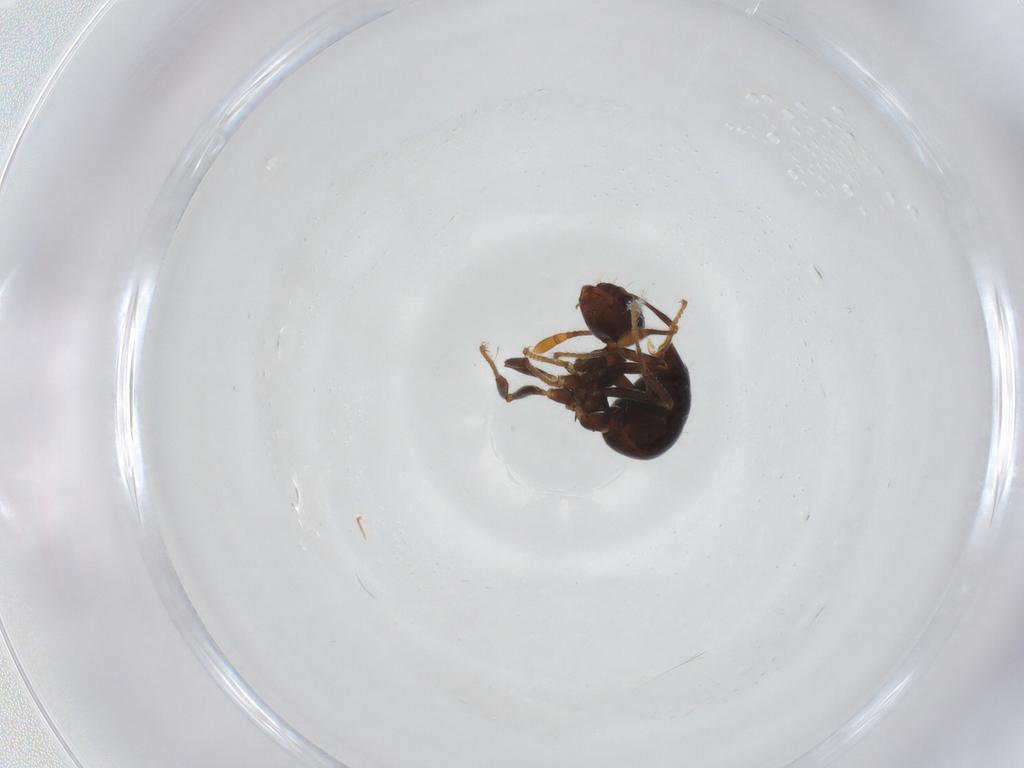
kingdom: Animalia
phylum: Arthropoda
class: Insecta
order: Hymenoptera
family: Formicidae
